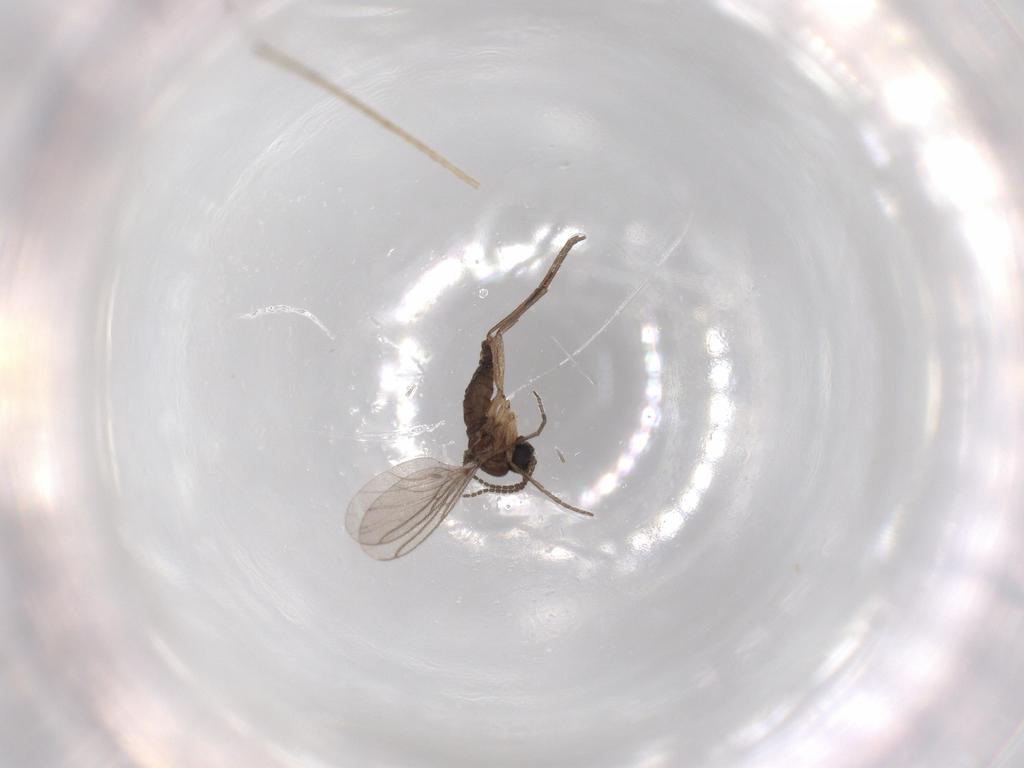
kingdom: Animalia
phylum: Arthropoda
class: Insecta
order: Diptera
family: Sciaridae
